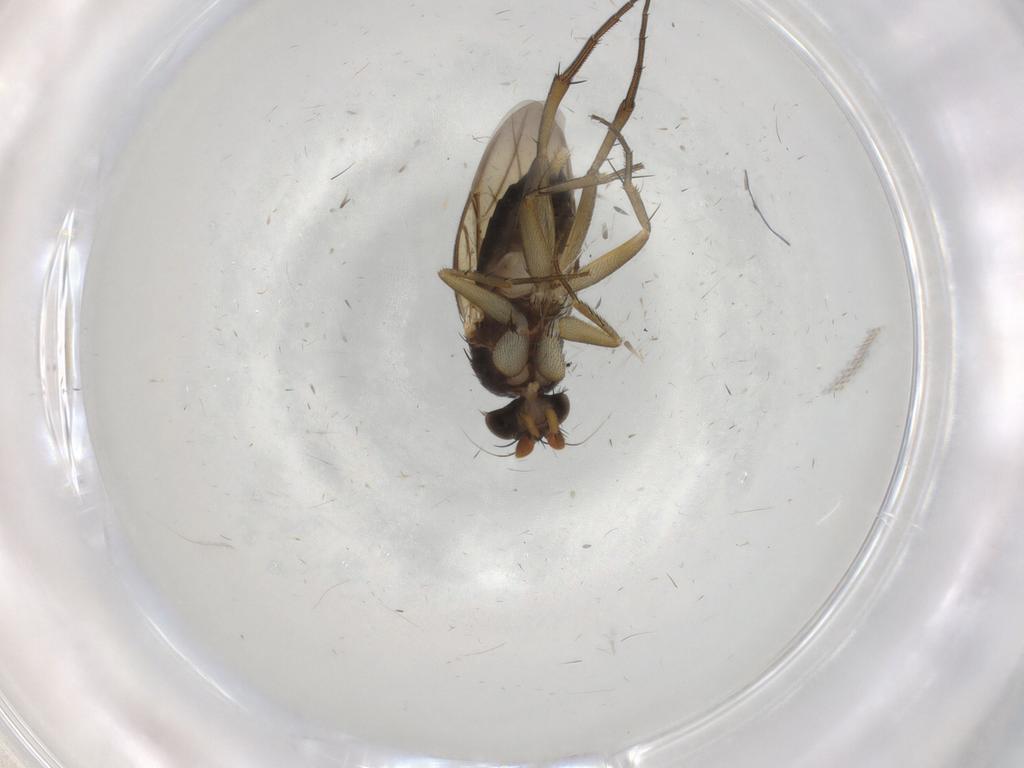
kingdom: Animalia
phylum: Arthropoda
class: Insecta
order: Diptera
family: Phoridae
